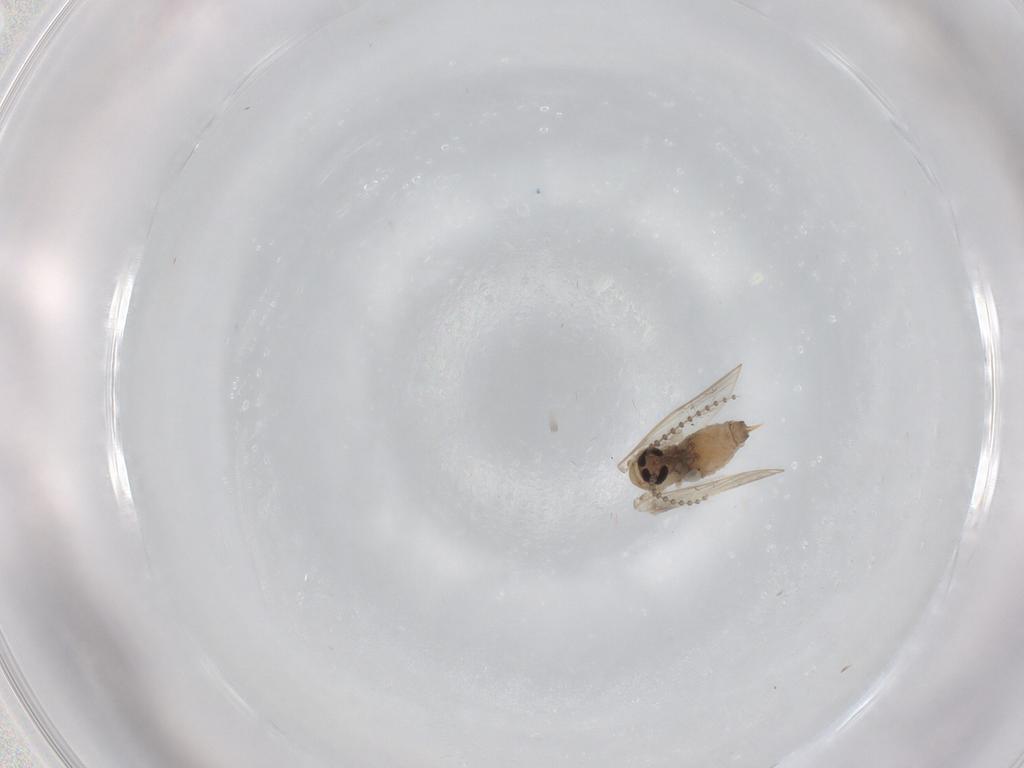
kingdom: Animalia
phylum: Arthropoda
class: Insecta
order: Diptera
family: Psychodidae
